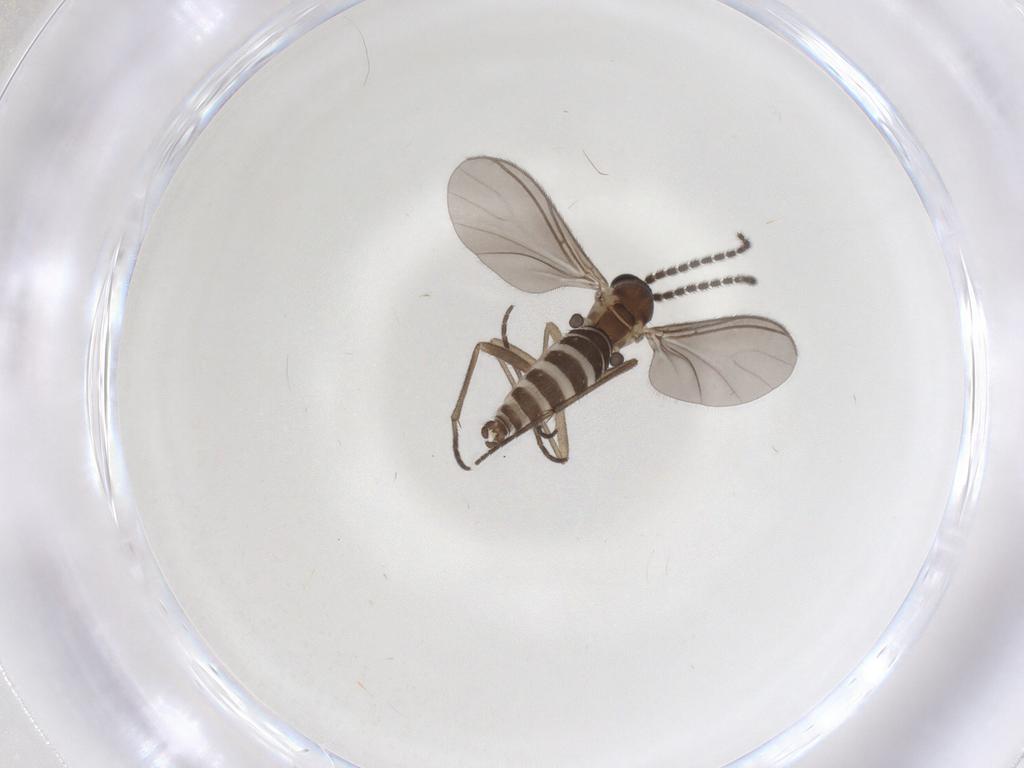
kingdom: Animalia
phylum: Arthropoda
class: Insecta
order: Diptera
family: Sciaridae
